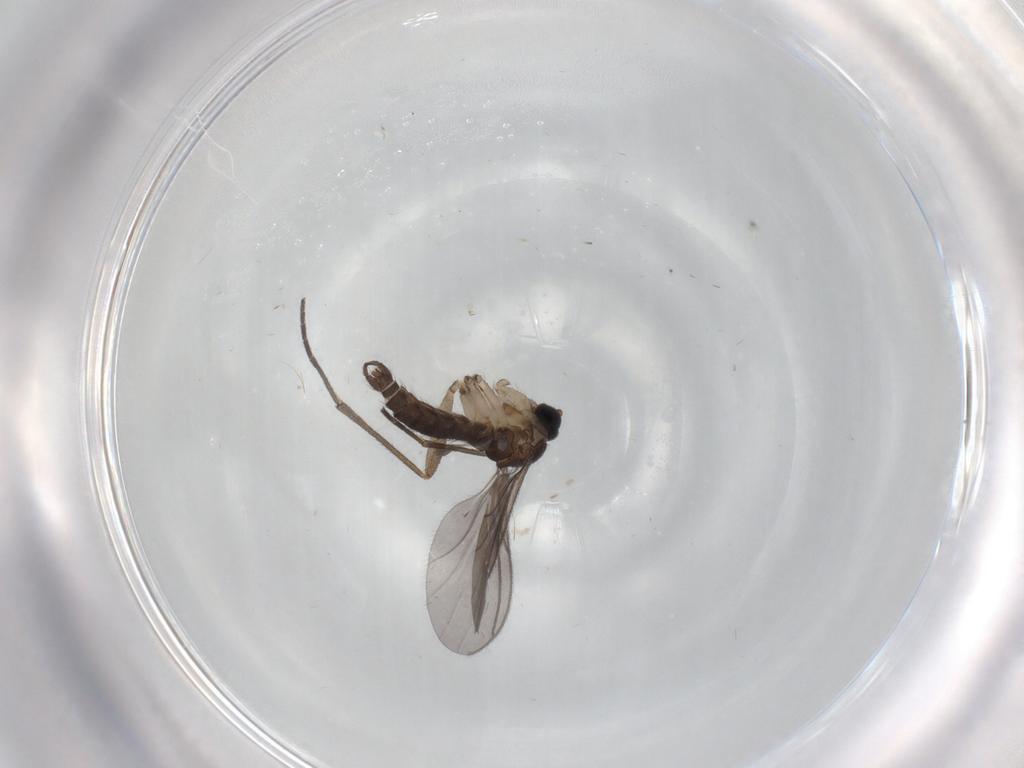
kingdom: Animalia
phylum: Arthropoda
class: Insecta
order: Diptera
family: Sciaridae
